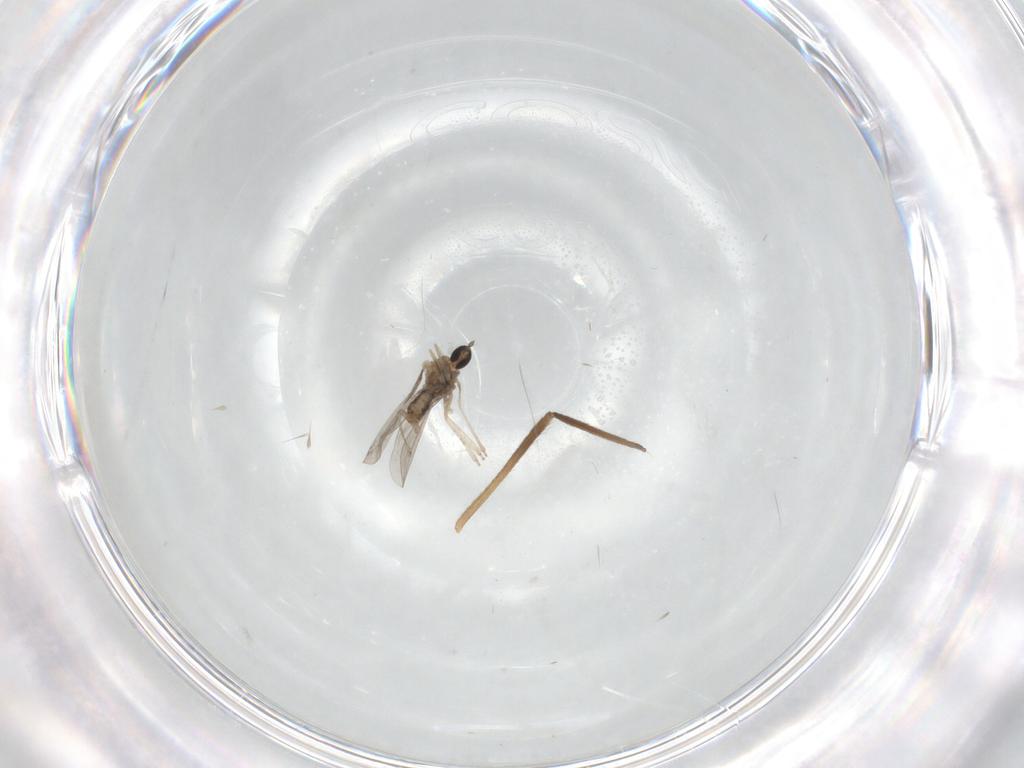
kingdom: Animalia
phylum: Arthropoda
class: Insecta
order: Diptera
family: Cecidomyiidae
